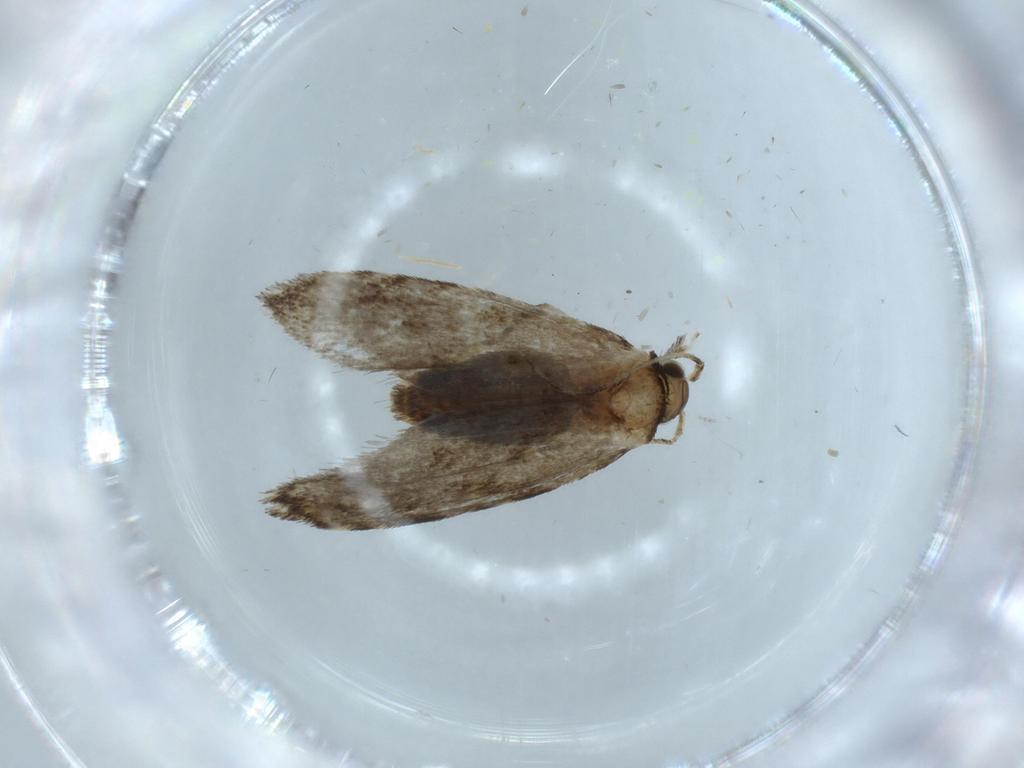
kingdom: Animalia
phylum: Arthropoda
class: Insecta
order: Lepidoptera
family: Tineidae
